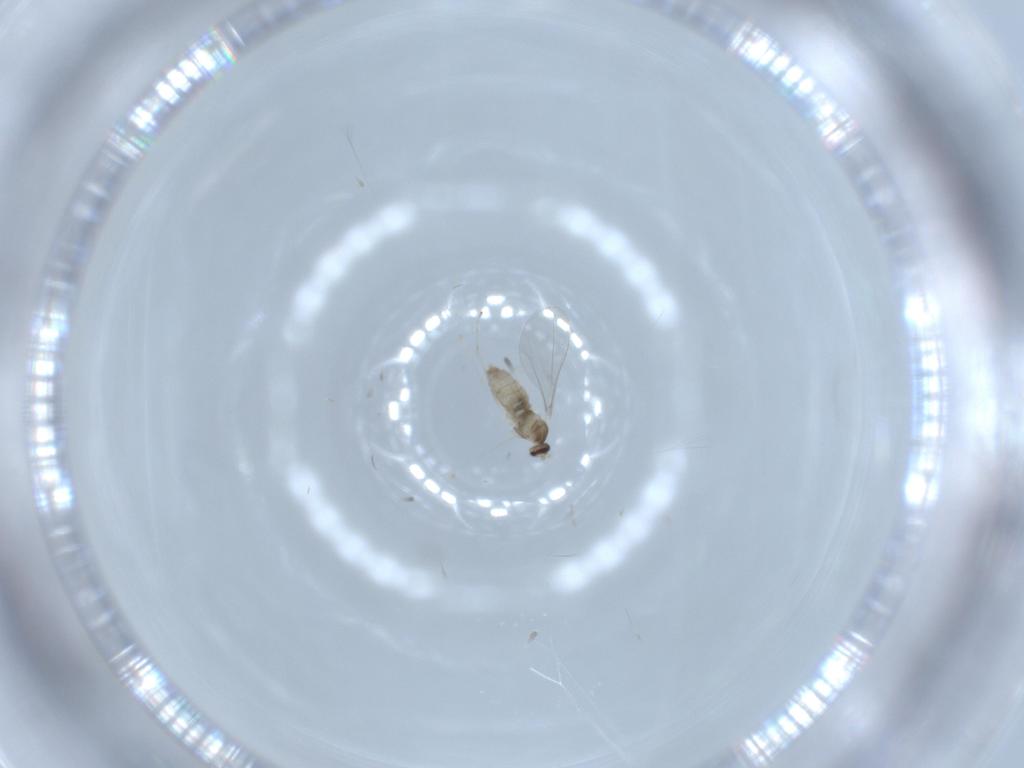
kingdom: Animalia
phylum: Arthropoda
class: Insecta
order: Diptera
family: Cecidomyiidae
